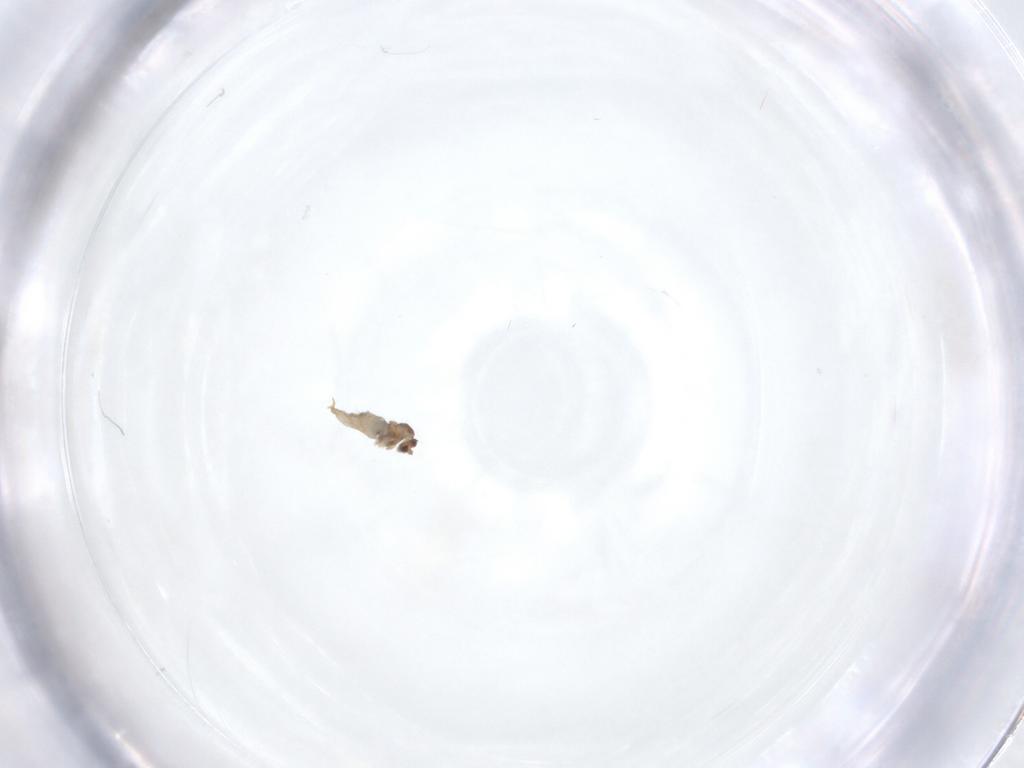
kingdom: Animalia
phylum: Arthropoda
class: Insecta
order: Diptera
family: Cecidomyiidae
